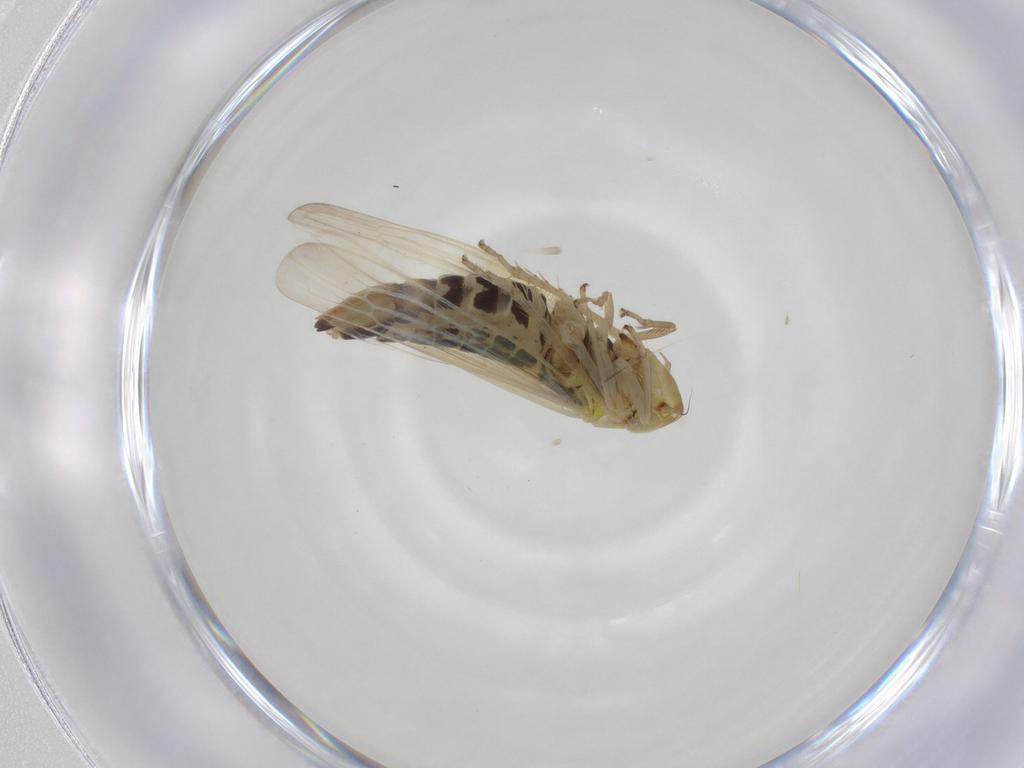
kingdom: Animalia
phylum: Arthropoda
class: Insecta
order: Hemiptera
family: Cicadellidae
